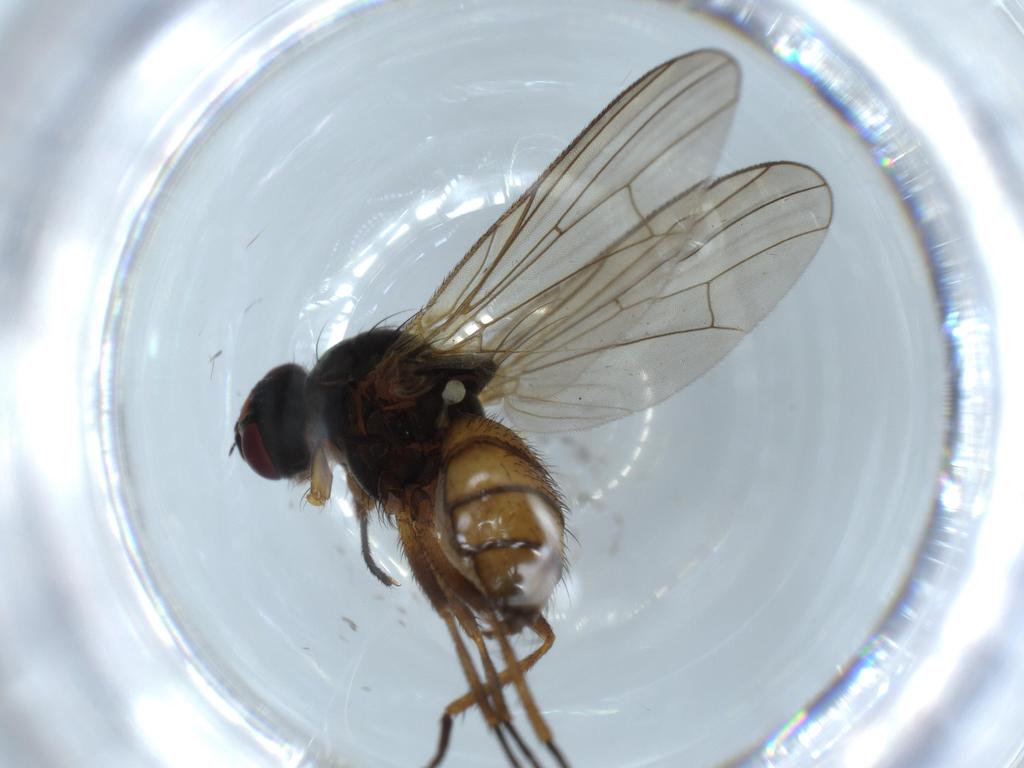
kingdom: Animalia
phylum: Arthropoda
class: Insecta
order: Diptera
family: Anthomyiidae
